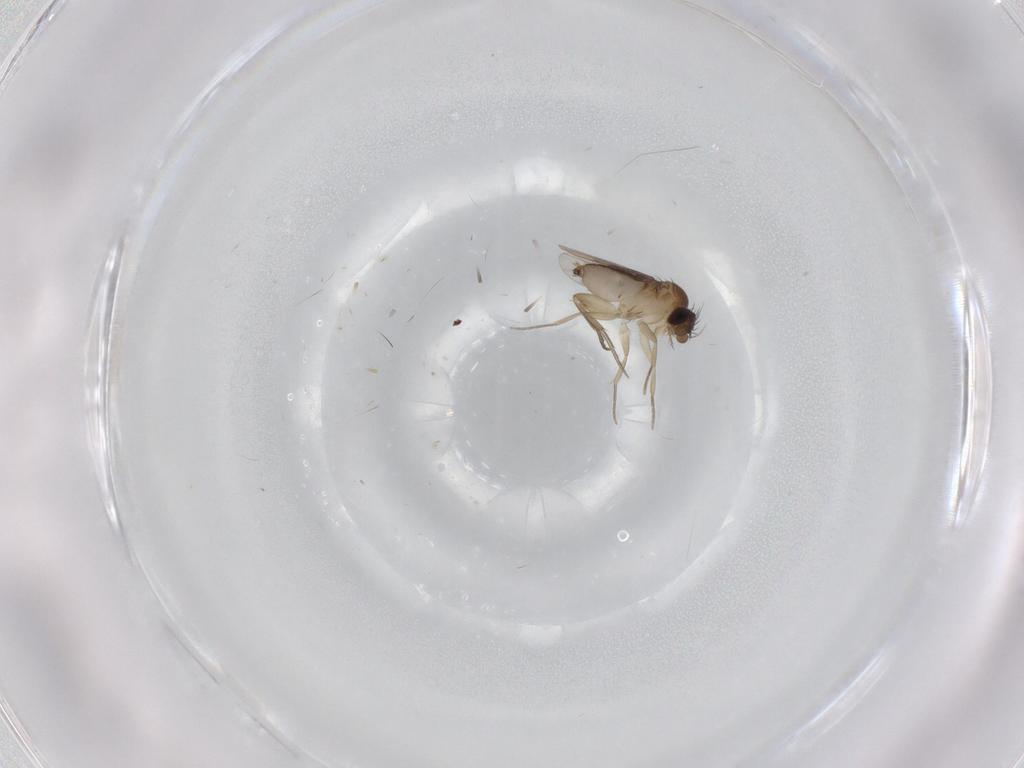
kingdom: Animalia
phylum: Arthropoda
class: Insecta
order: Diptera
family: Phoridae
